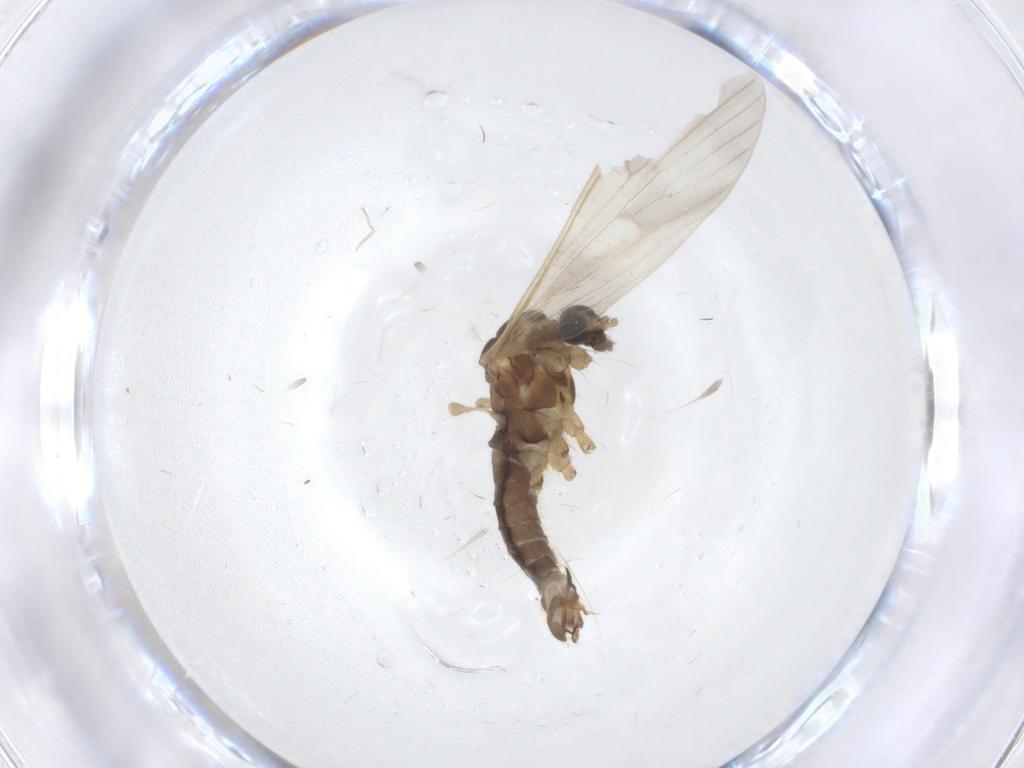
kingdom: Animalia
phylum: Arthropoda
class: Insecta
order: Diptera
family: Limoniidae
